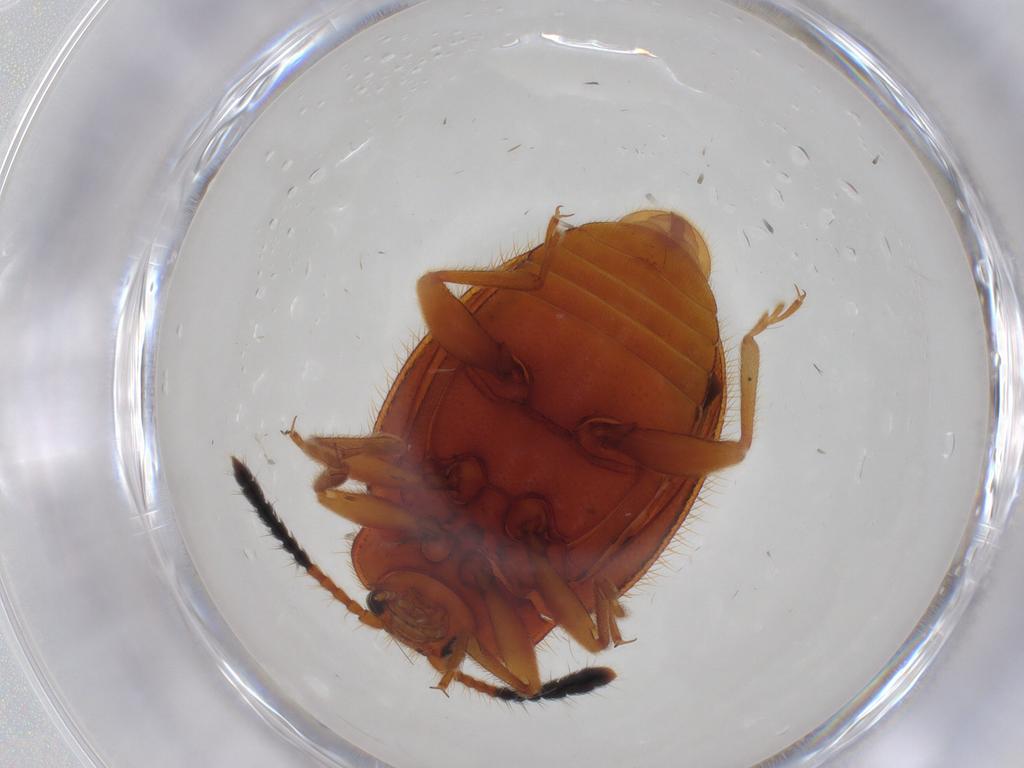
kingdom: Animalia
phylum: Arthropoda
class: Insecta
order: Coleoptera
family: Endomychidae
